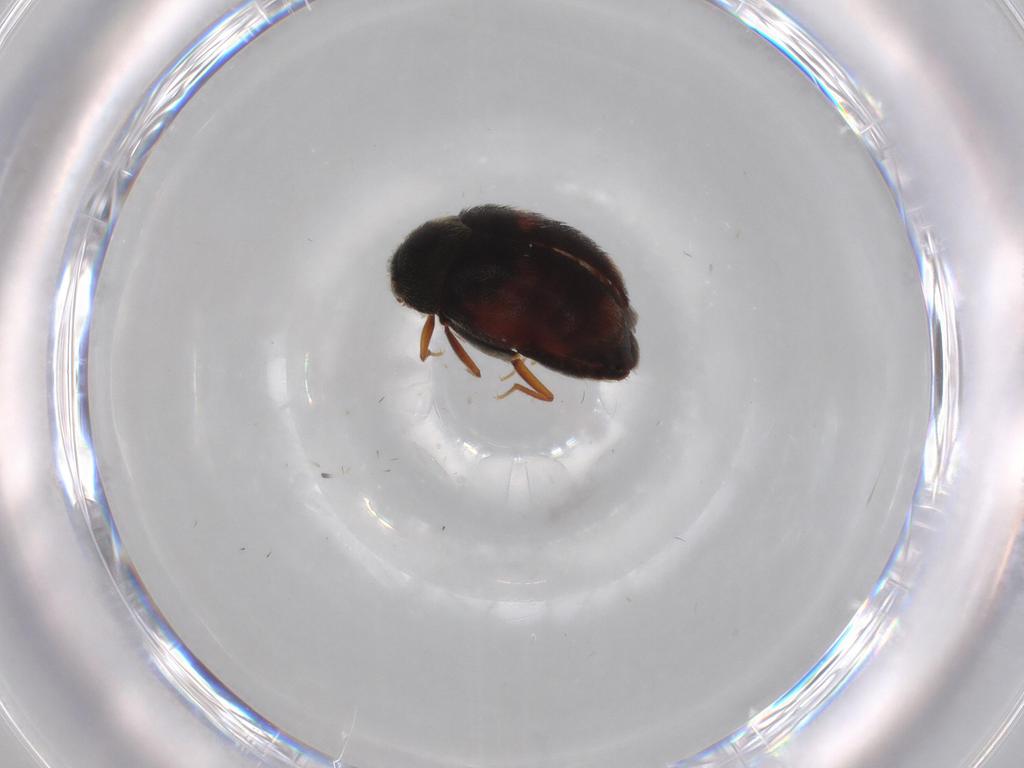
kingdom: Animalia
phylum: Arthropoda
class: Insecta
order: Coleoptera
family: Dermestidae
